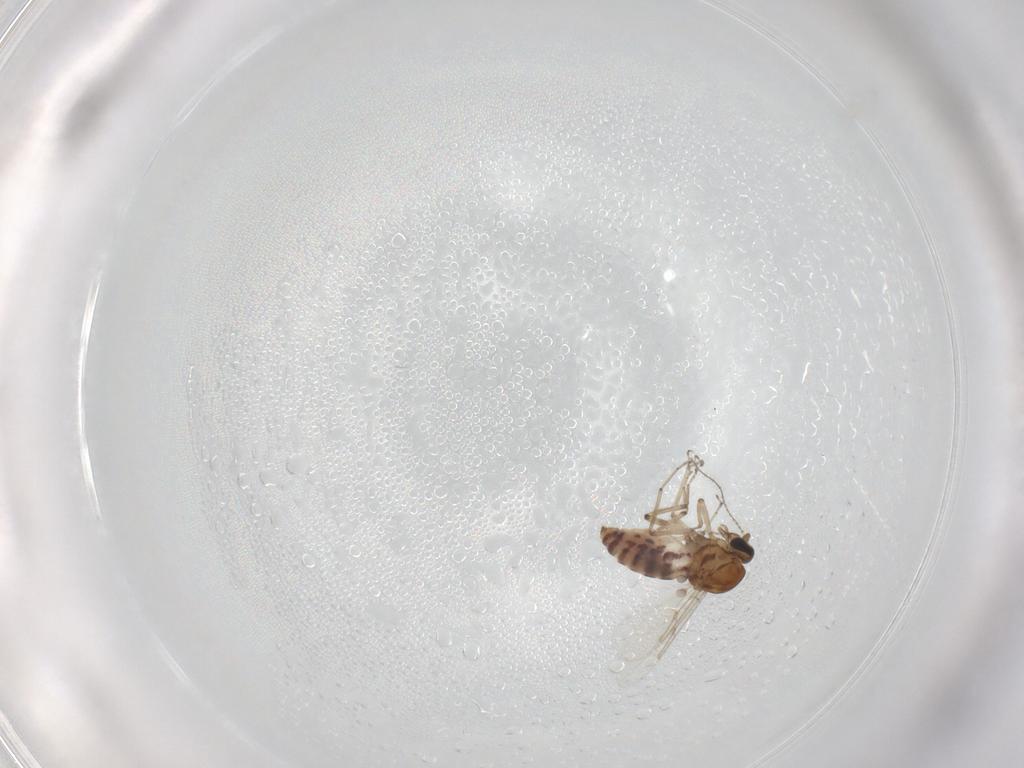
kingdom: Animalia
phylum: Arthropoda
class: Insecta
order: Diptera
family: Ceratopogonidae
